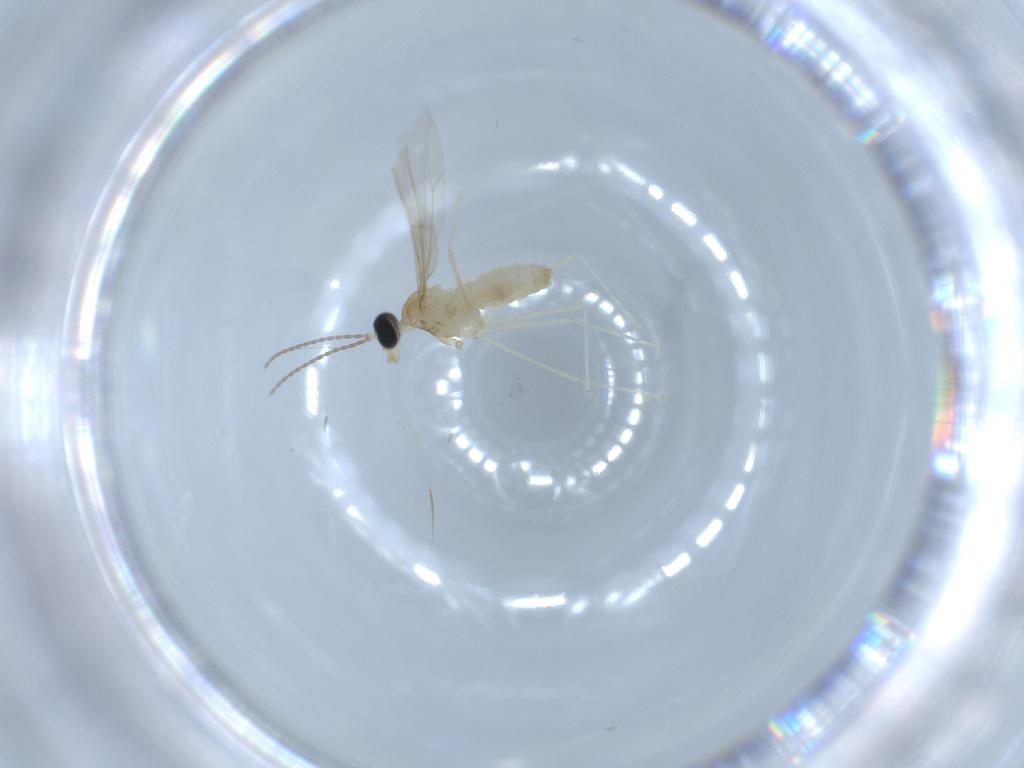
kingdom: Animalia
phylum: Arthropoda
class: Insecta
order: Diptera
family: Cecidomyiidae
